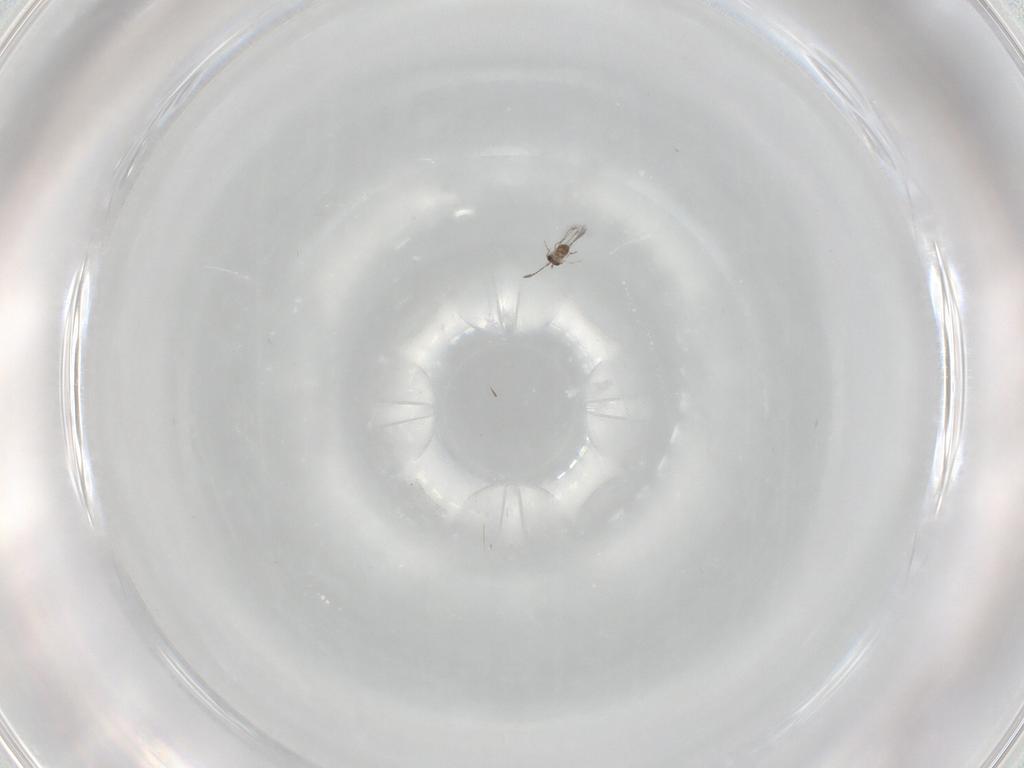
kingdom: Animalia
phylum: Arthropoda
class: Insecta
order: Hymenoptera
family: Mymaridae
